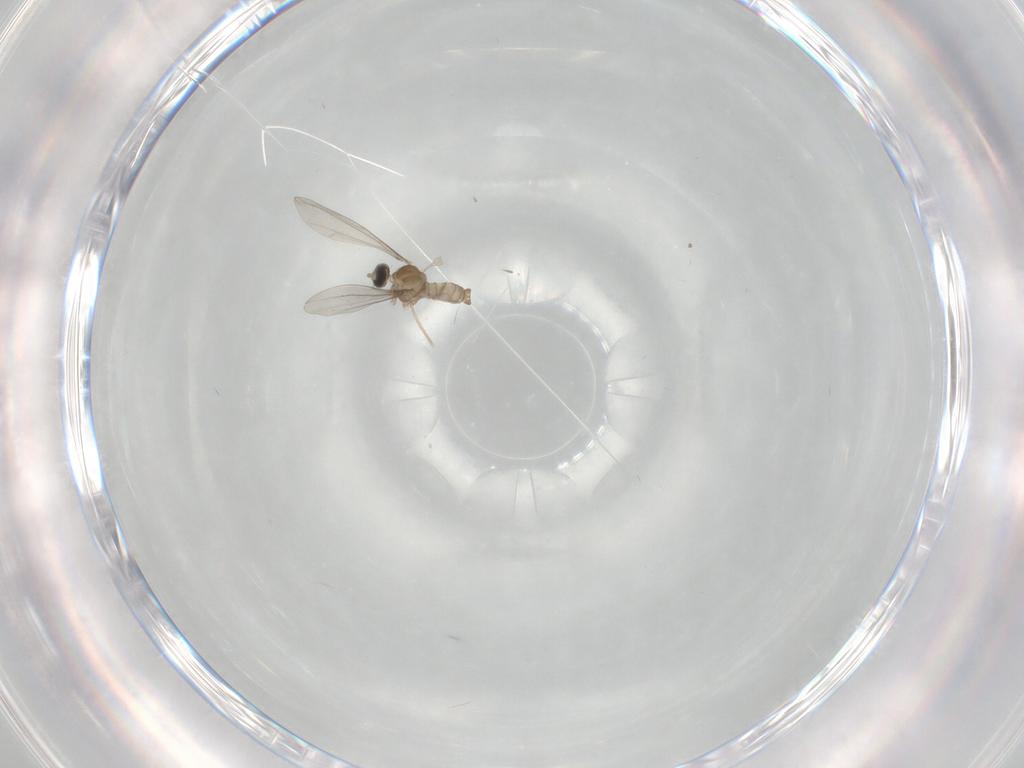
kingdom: Animalia
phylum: Arthropoda
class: Insecta
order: Diptera
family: Cecidomyiidae
